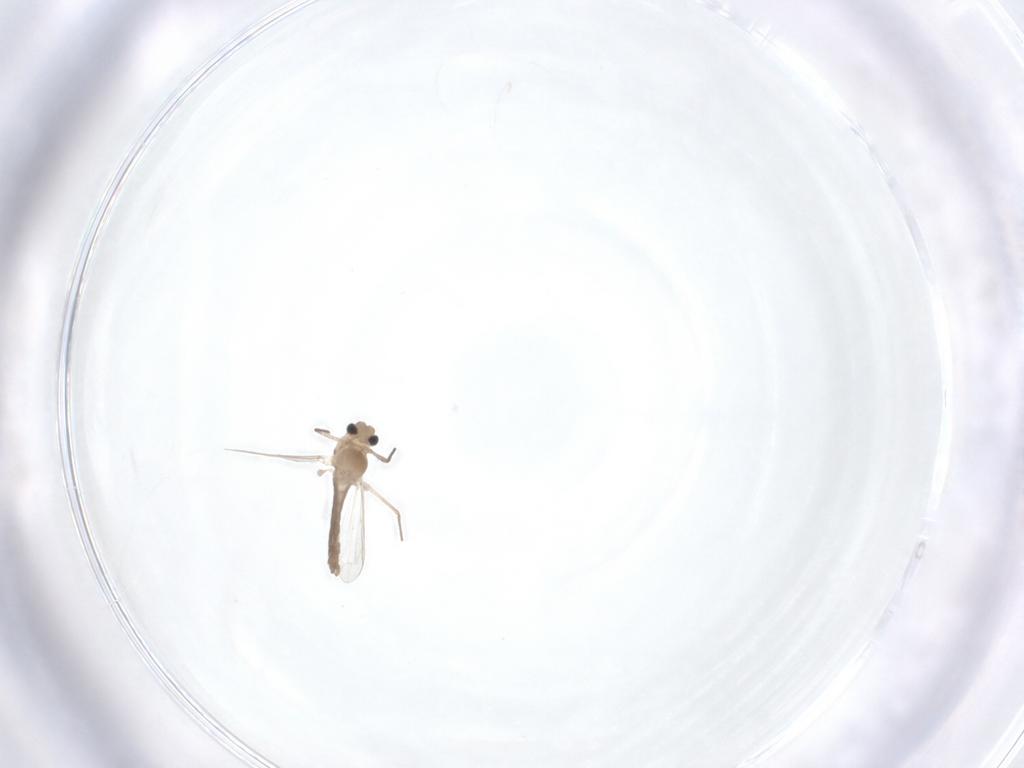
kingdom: Animalia
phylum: Arthropoda
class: Insecta
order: Diptera
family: Chironomidae
